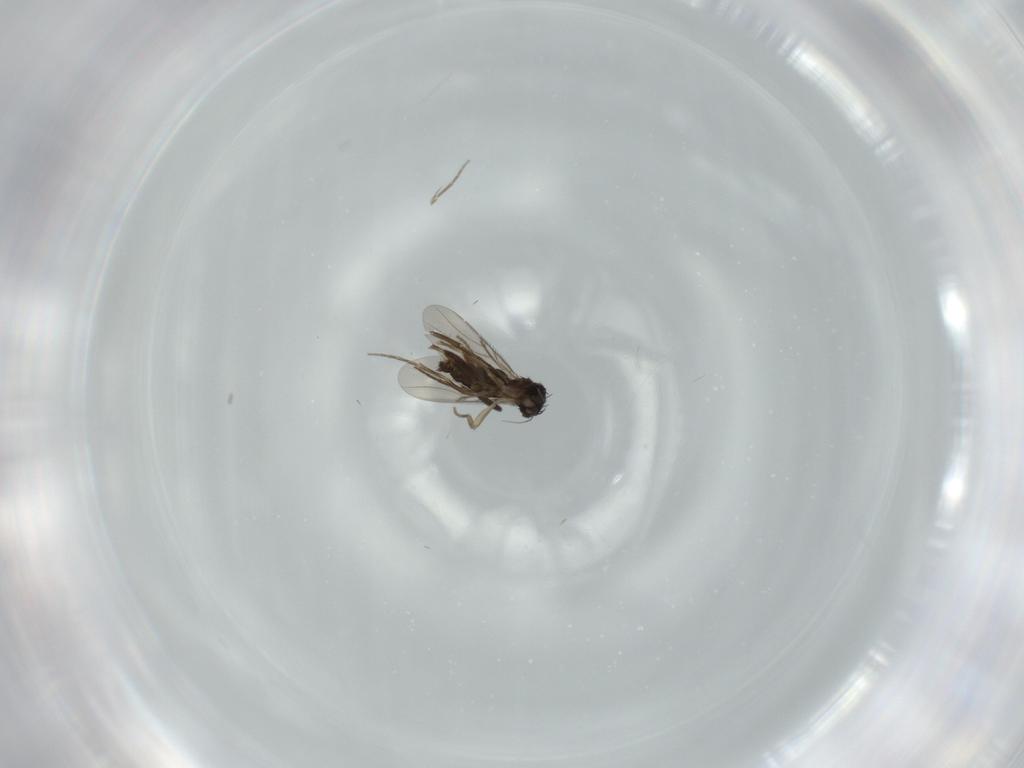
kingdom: Animalia
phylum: Arthropoda
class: Insecta
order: Diptera
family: Phoridae
